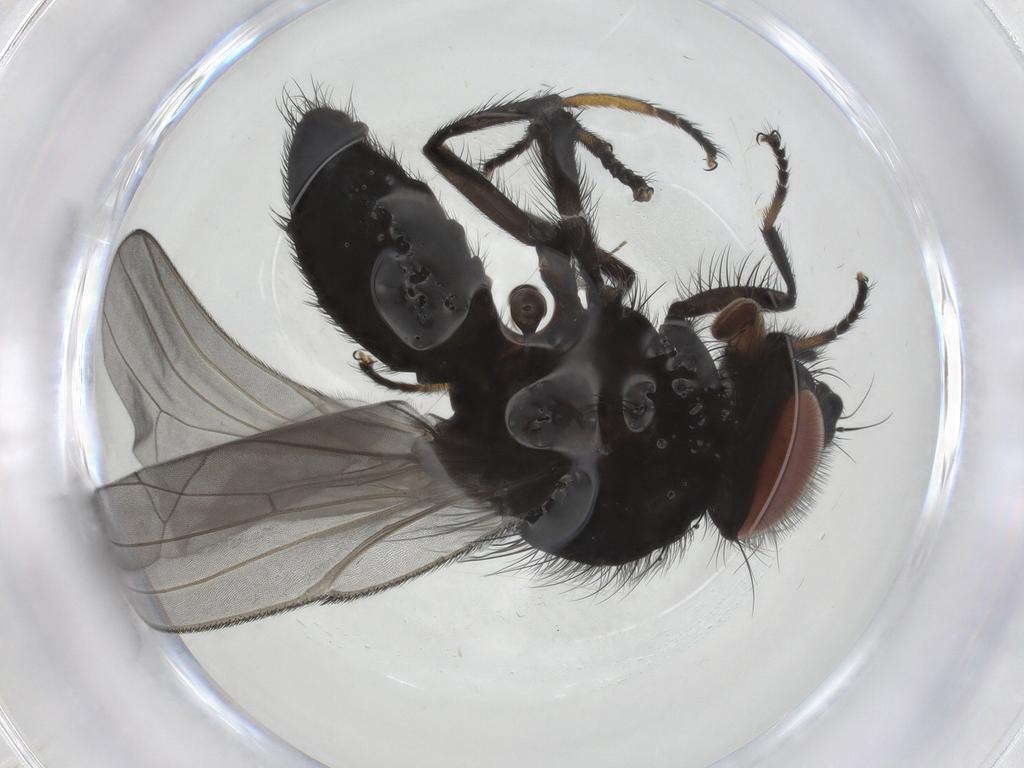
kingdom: Animalia
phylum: Arthropoda
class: Insecta
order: Diptera
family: Lonchaeidae
